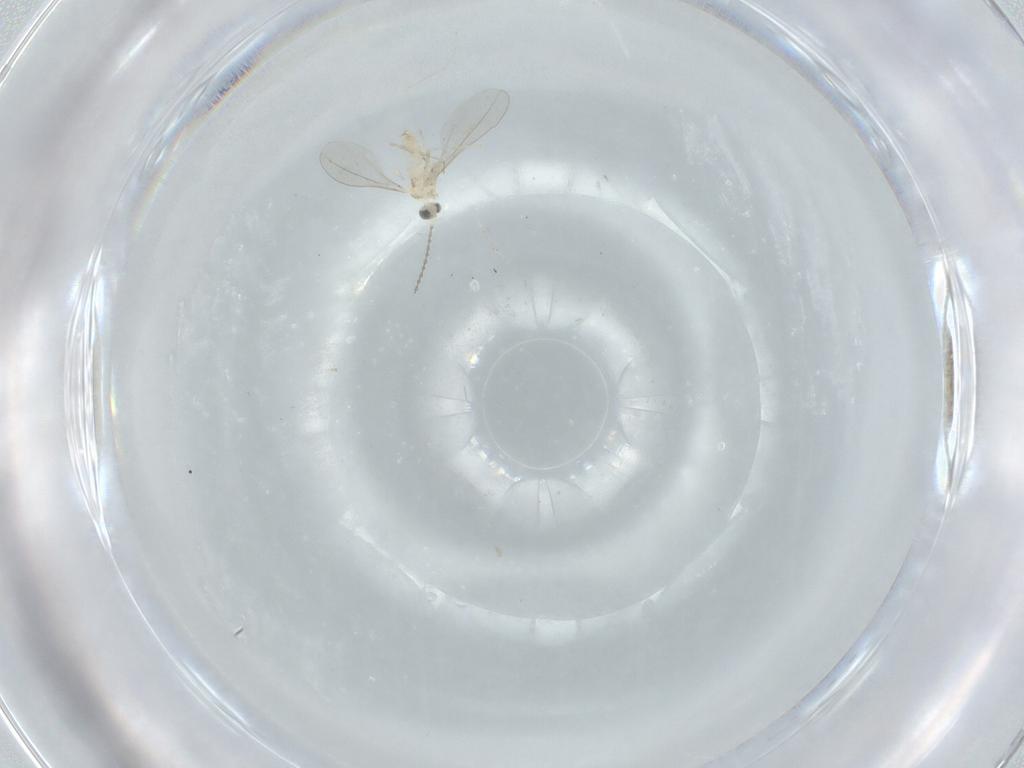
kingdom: Animalia
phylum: Arthropoda
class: Insecta
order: Diptera
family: Cecidomyiidae
